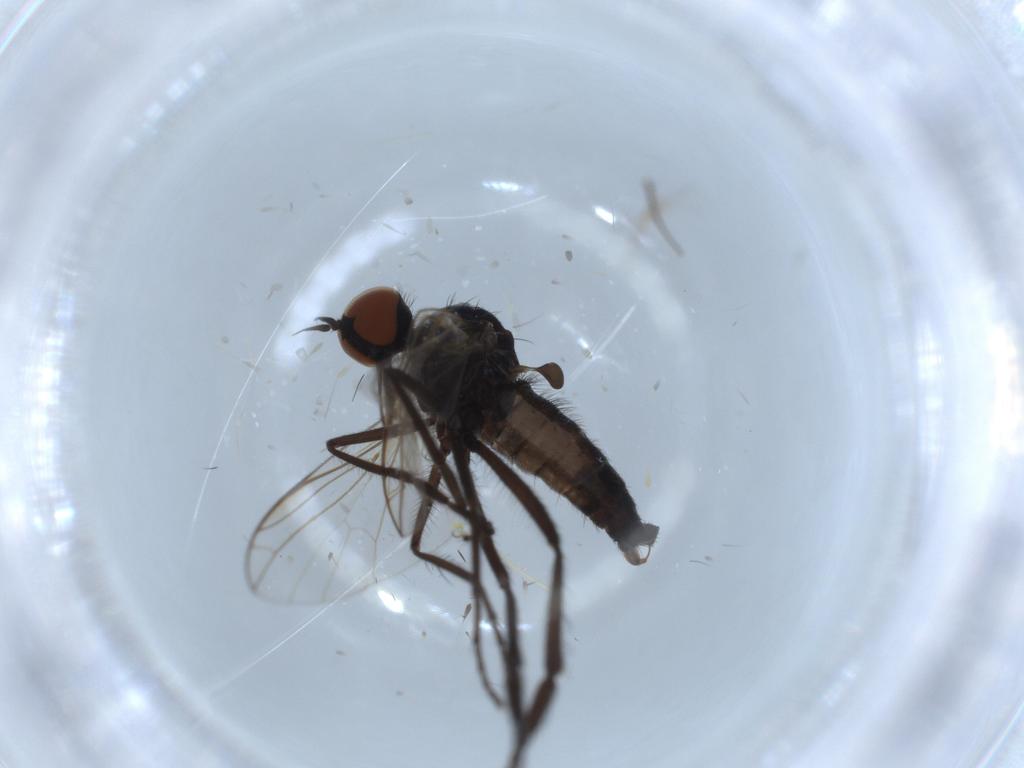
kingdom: Animalia
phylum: Arthropoda
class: Insecta
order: Diptera
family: Empididae
